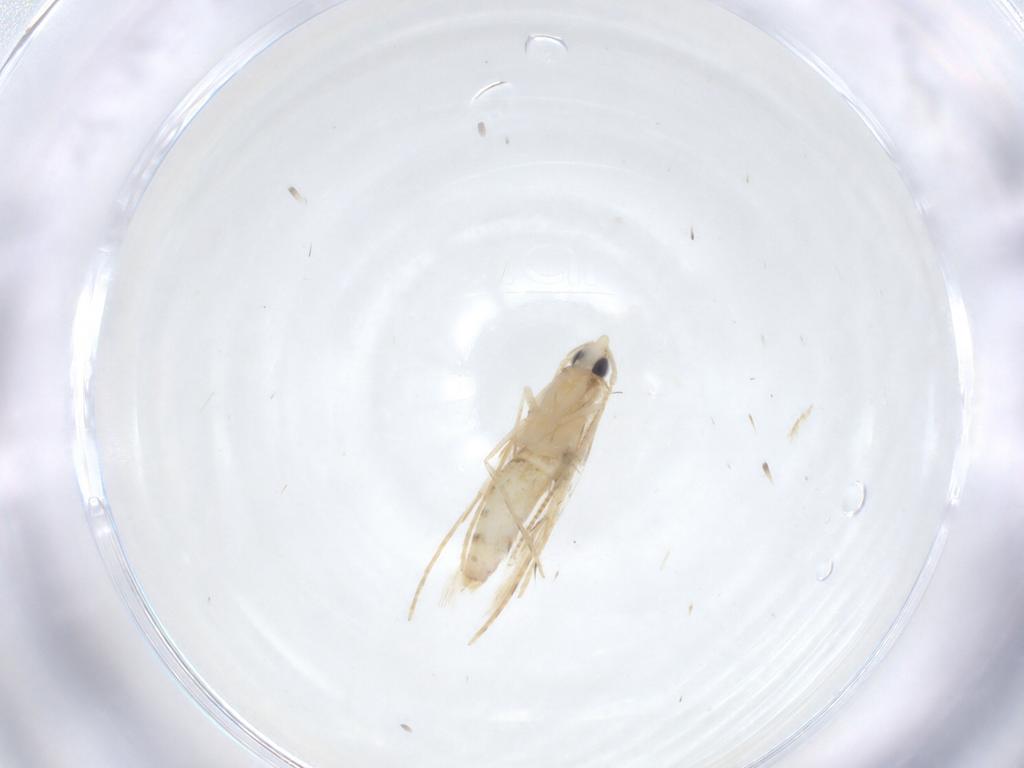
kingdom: Animalia
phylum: Arthropoda
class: Insecta
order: Lepidoptera
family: Tineidae
